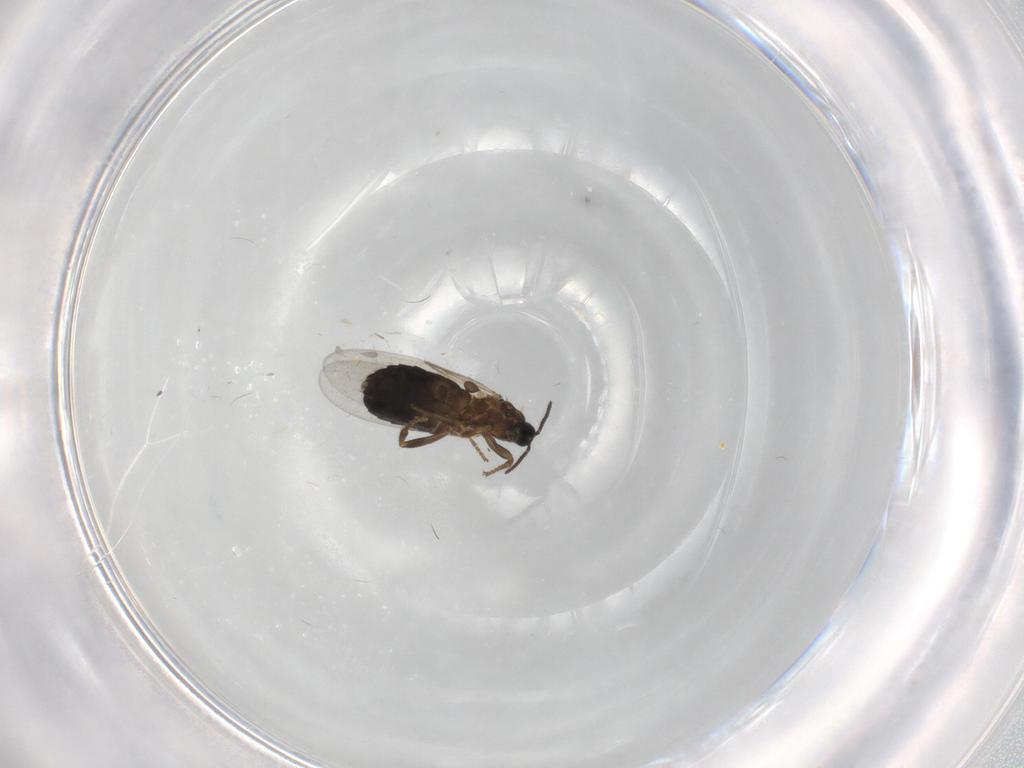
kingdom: Animalia
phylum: Arthropoda
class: Insecta
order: Diptera
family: Scatopsidae
